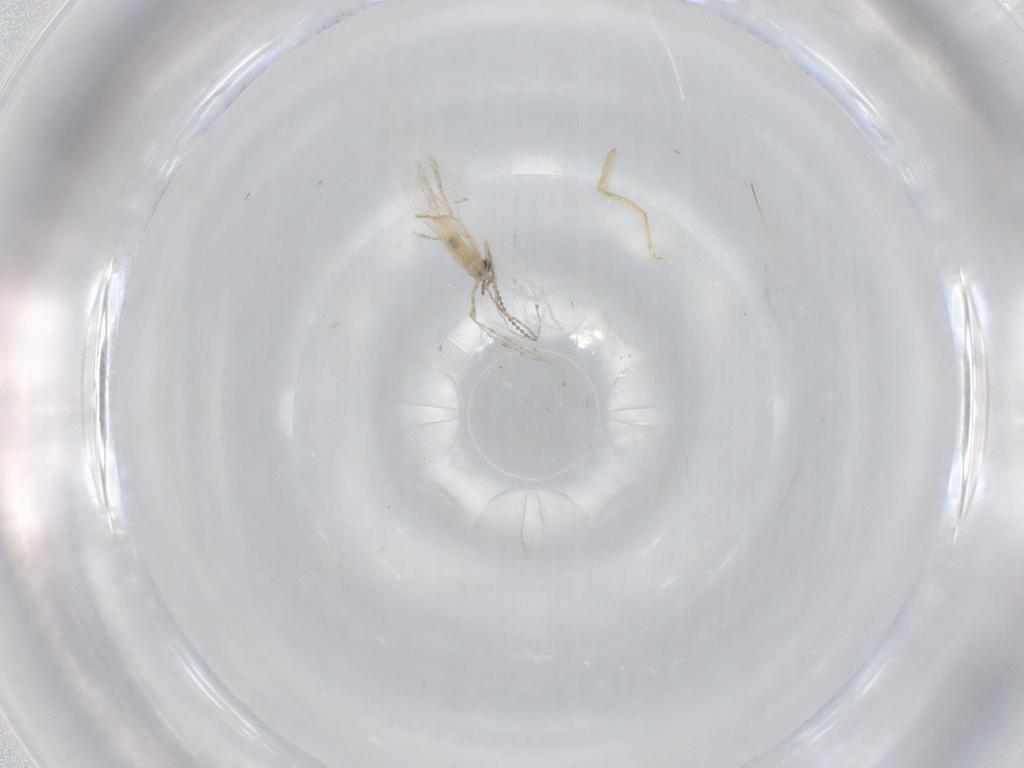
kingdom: Animalia
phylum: Arthropoda
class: Insecta
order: Diptera
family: Cecidomyiidae
